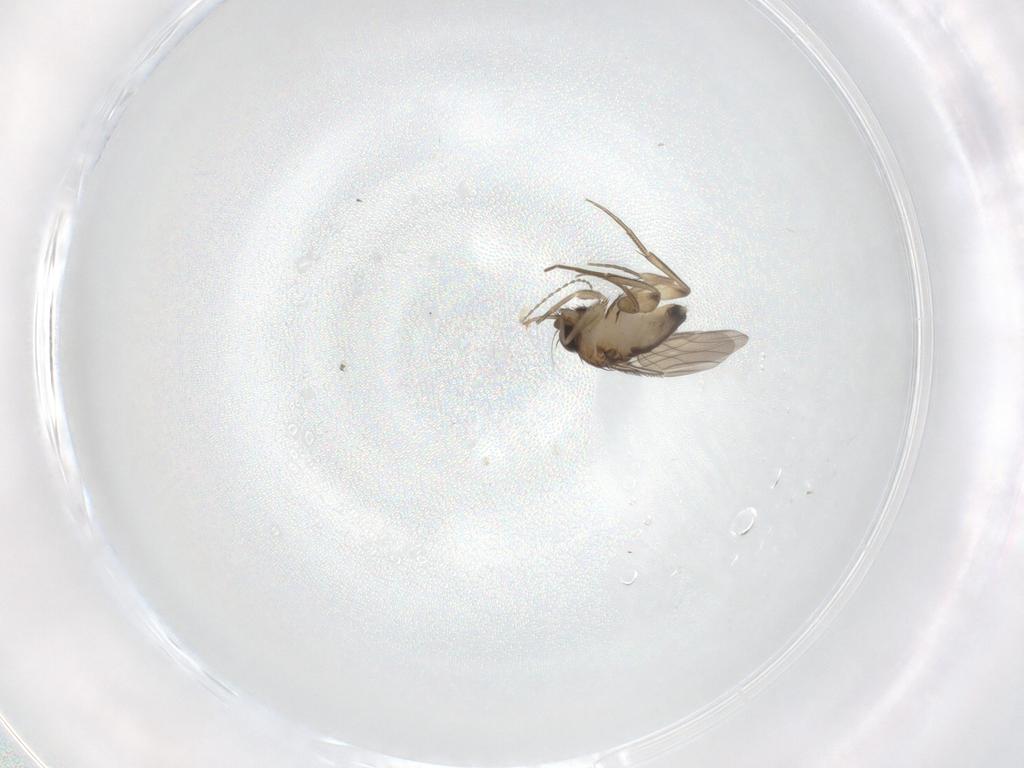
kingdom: Animalia
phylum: Arthropoda
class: Insecta
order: Diptera
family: Phoridae
